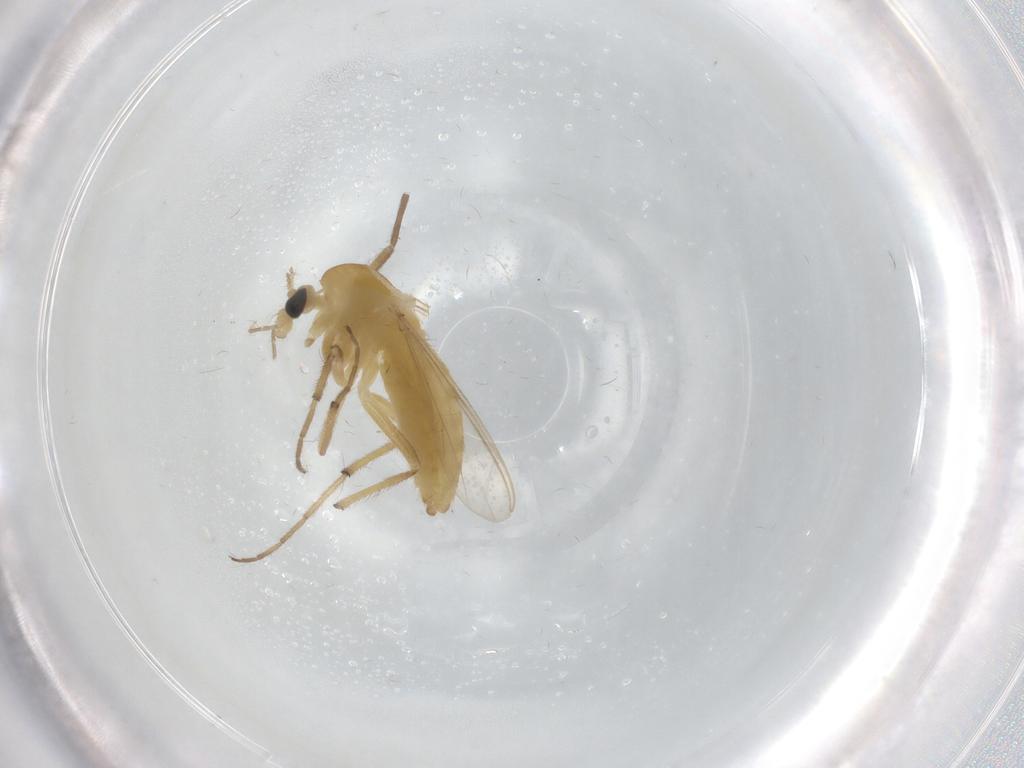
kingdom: Animalia
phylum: Arthropoda
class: Insecta
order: Diptera
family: Chironomidae
